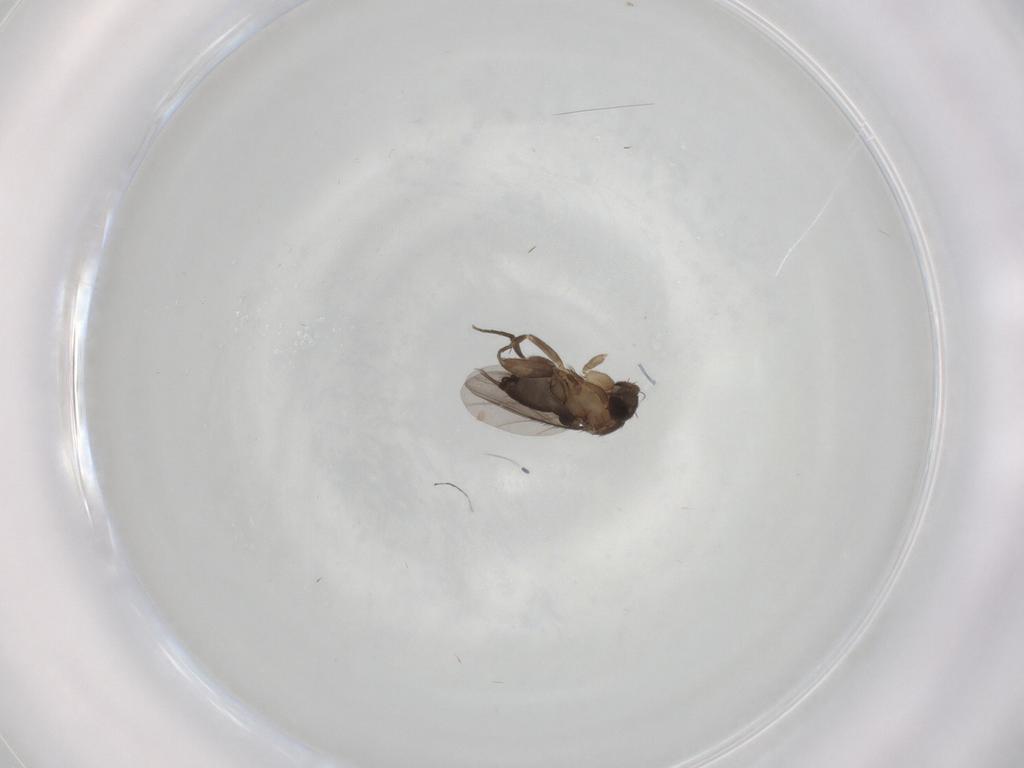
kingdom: Animalia
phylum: Arthropoda
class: Insecta
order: Diptera
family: Phoridae
